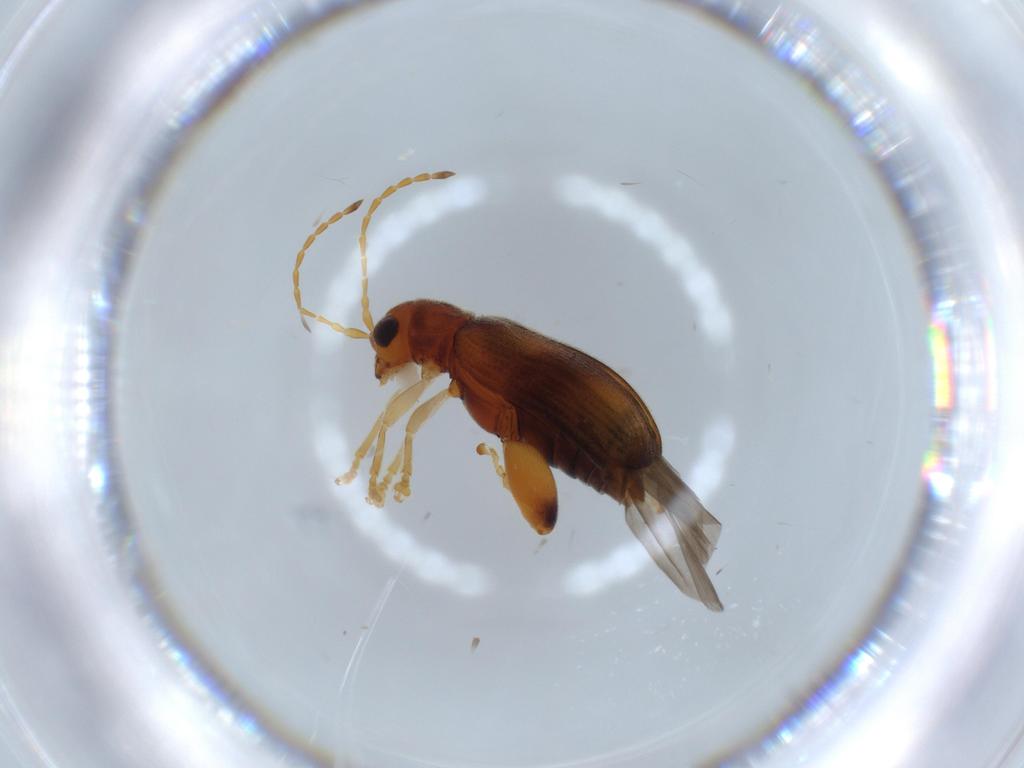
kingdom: Animalia
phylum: Arthropoda
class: Insecta
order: Coleoptera
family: Chrysomelidae
